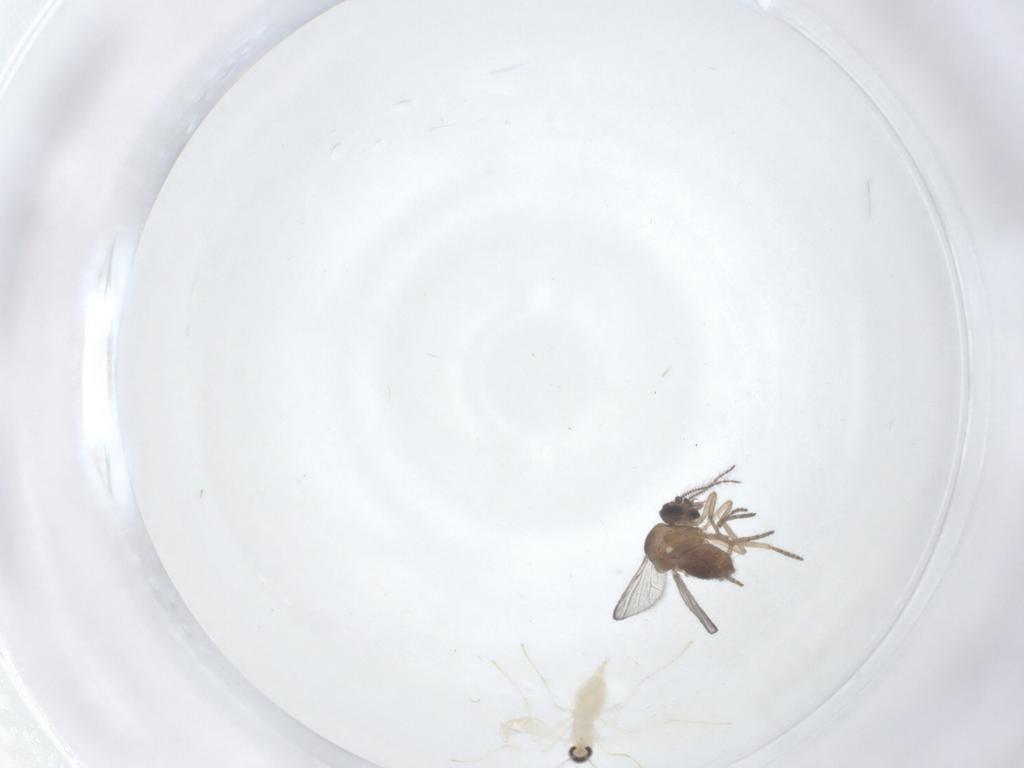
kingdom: Animalia
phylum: Arthropoda
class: Insecta
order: Diptera
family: Cecidomyiidae
